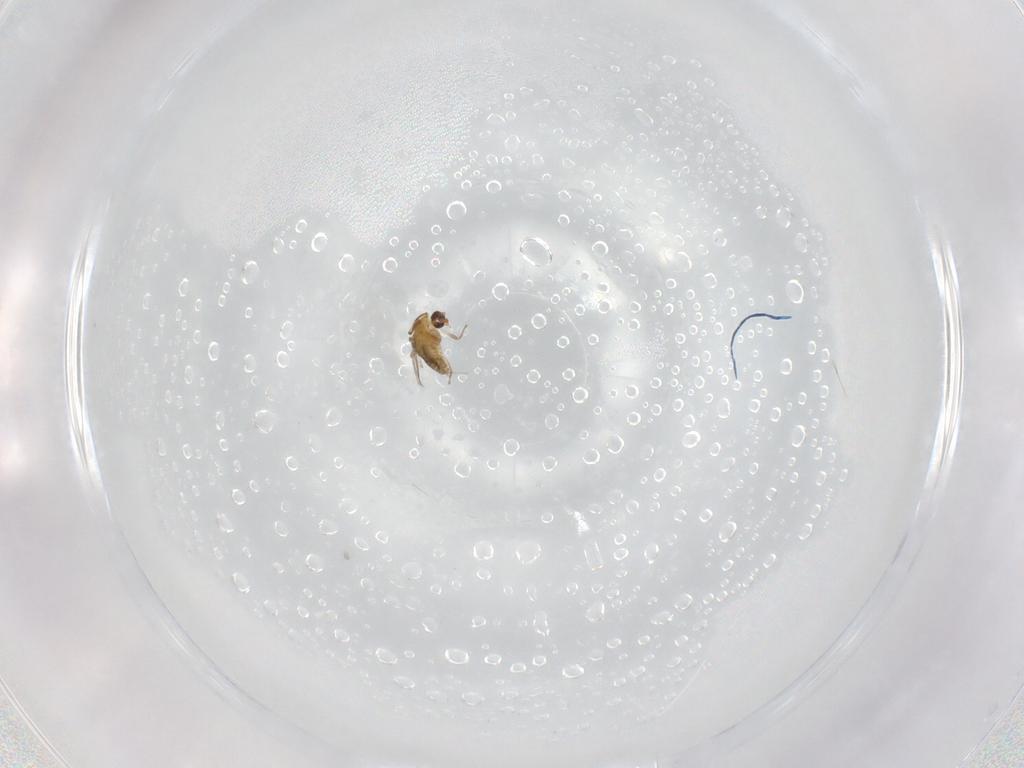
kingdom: Animalia
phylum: Arthropoda
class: Insecta
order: Diptera
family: Chironomidae
